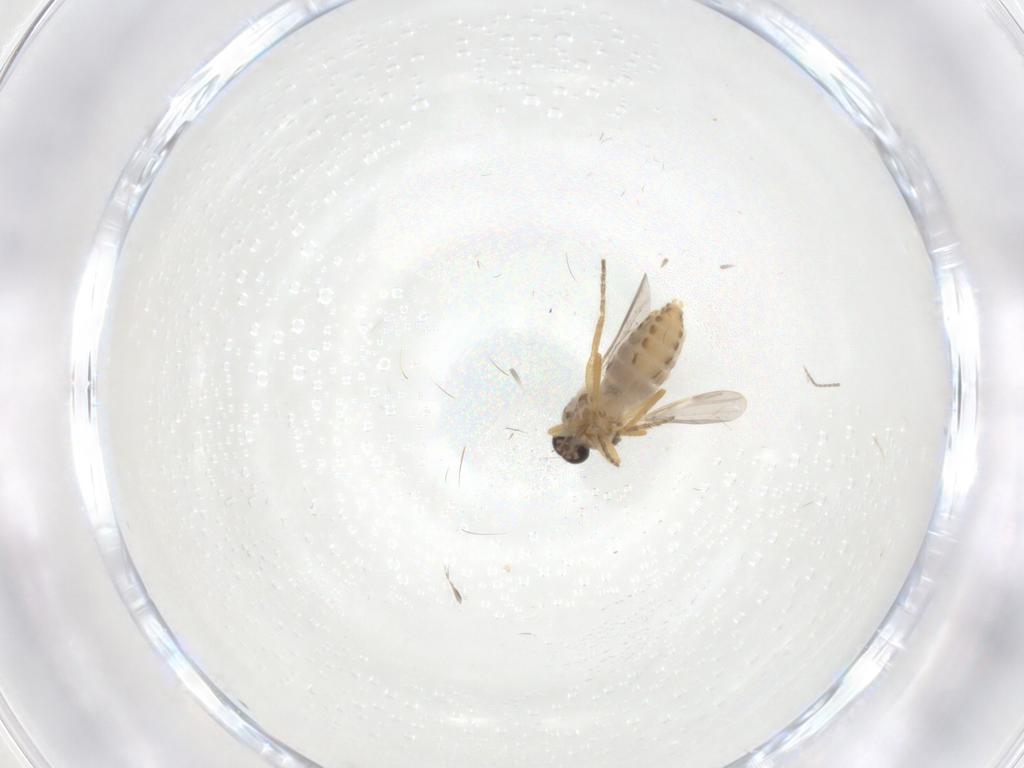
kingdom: Animalia
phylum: Arthropoda
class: Insecta
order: Diptera
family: Ceratopogonidae
